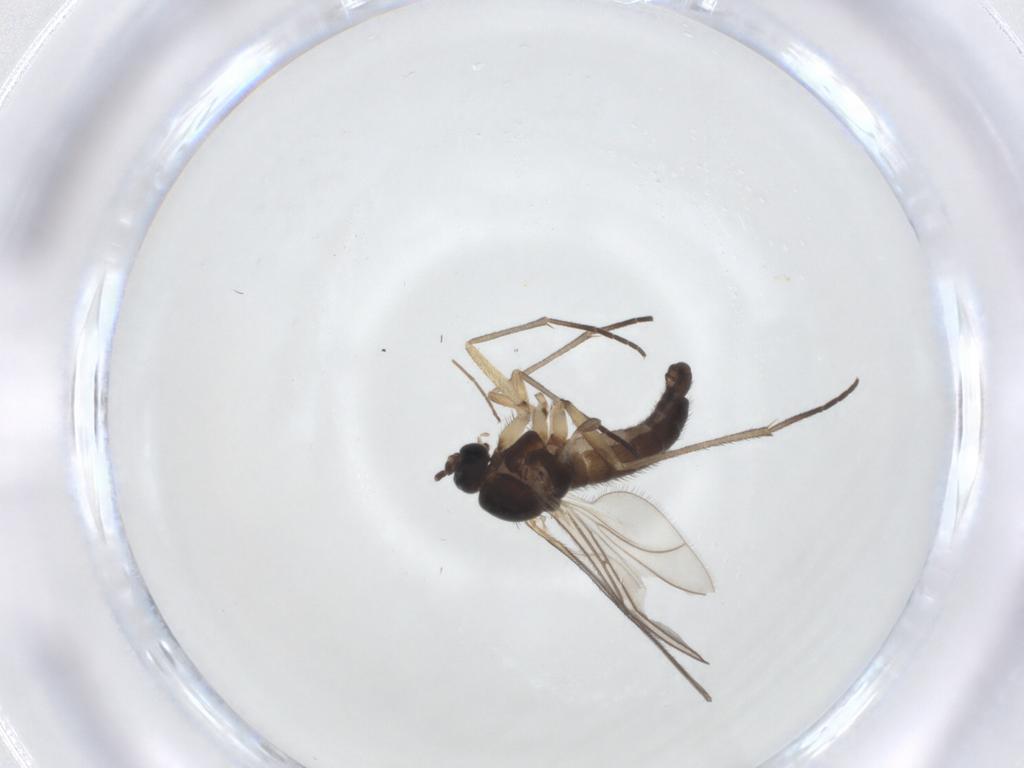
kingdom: Animalia
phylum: Arthropoda
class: Insecta
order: Diptera
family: Sciaridae
